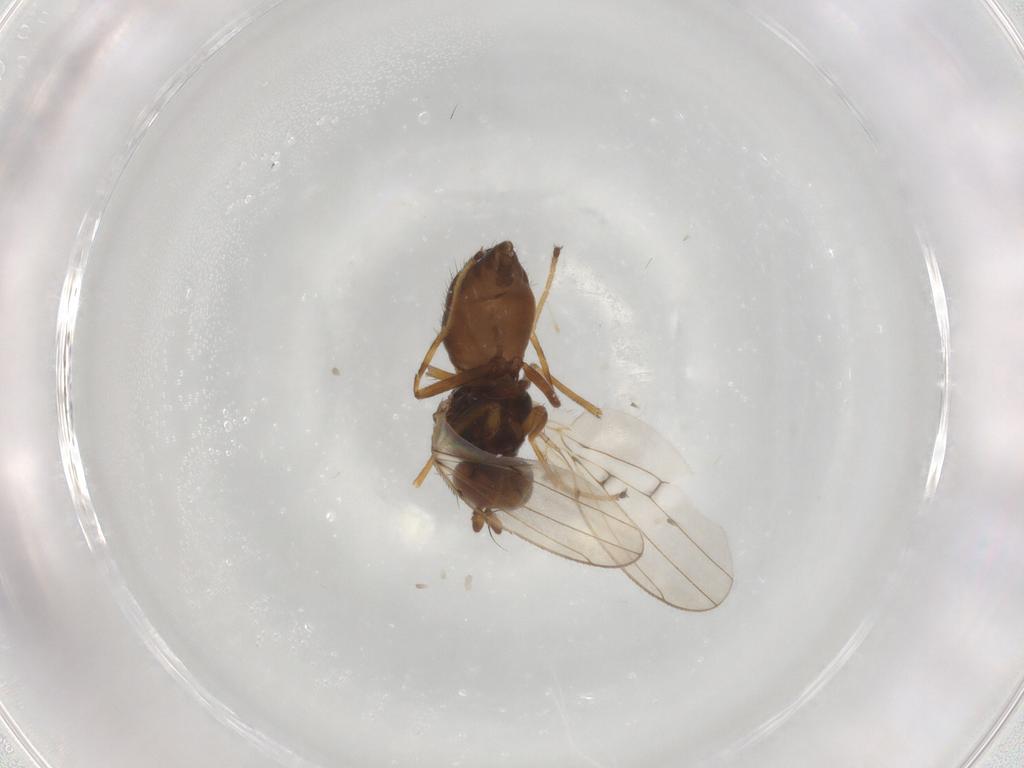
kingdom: Animalia
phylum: Arthropoda
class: Insecta
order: Diptera
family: Ephydridae
